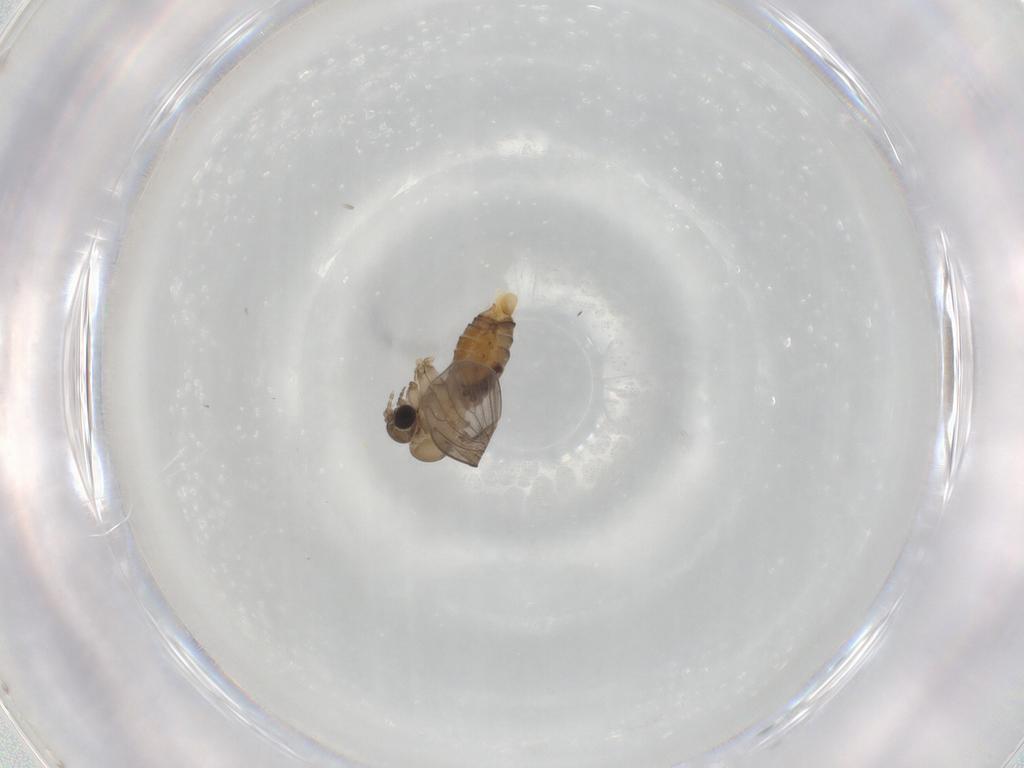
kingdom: Animalia
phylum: Arthropoda
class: Insecta
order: Diptera
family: Psychodidae
